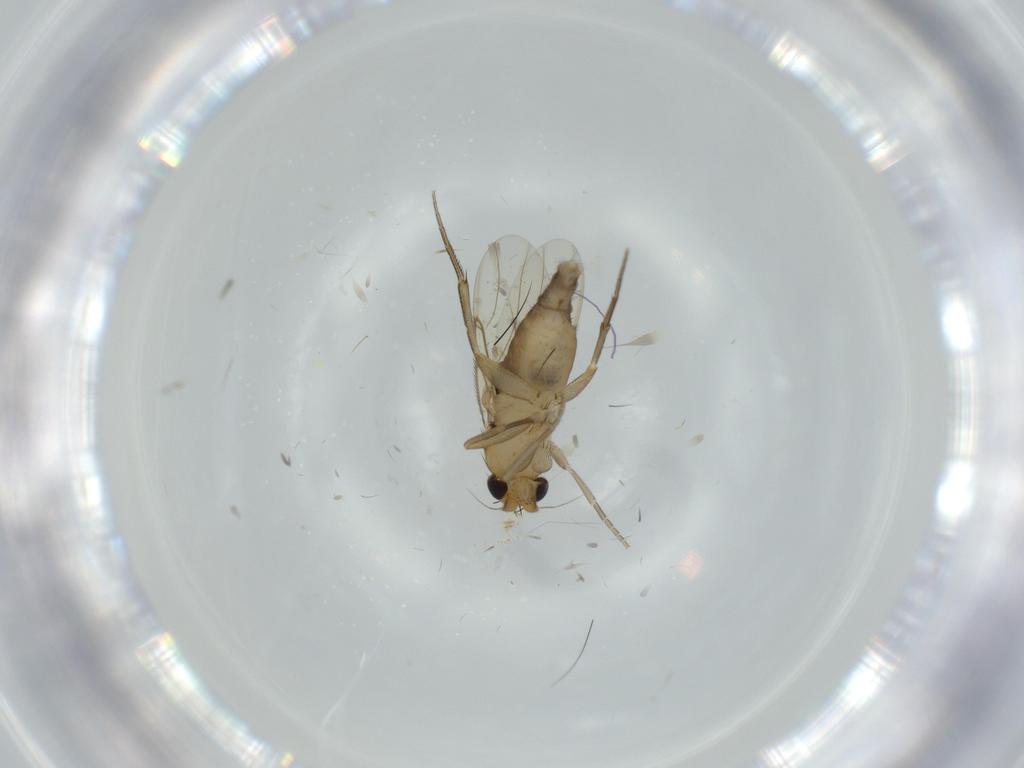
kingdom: Animalia
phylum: Arthropoda
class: Insecta
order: Diptera
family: Phoridae
